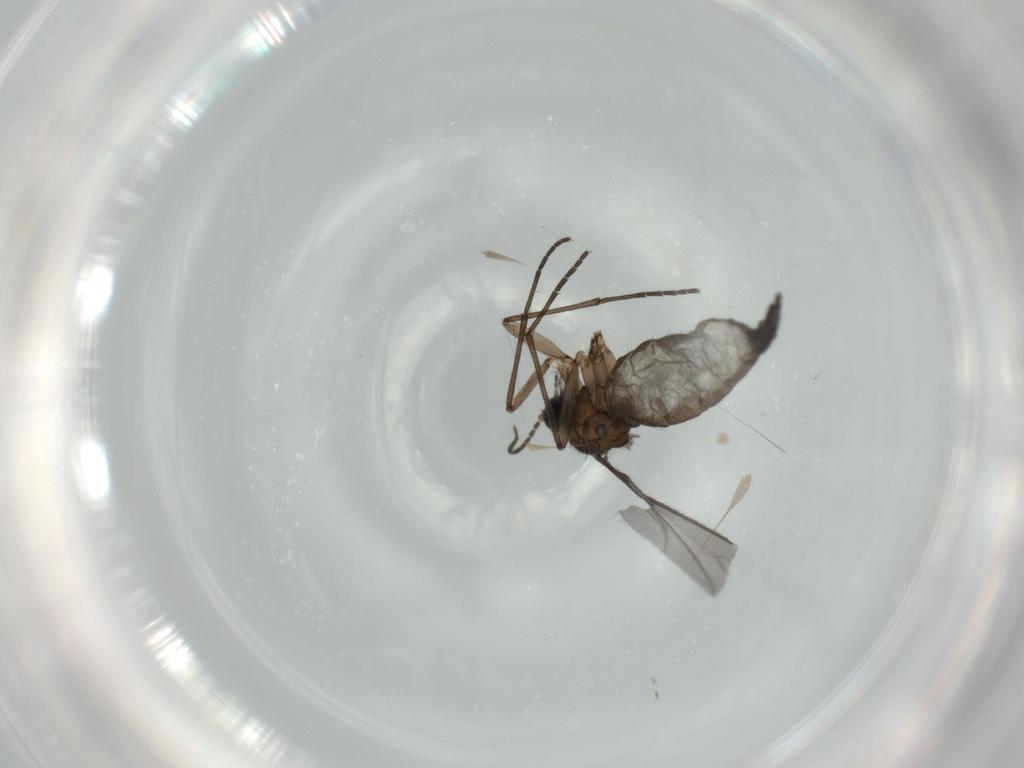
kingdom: Animalia
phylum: Arthropoda
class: Insecta
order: Diptera
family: Sciaridae
